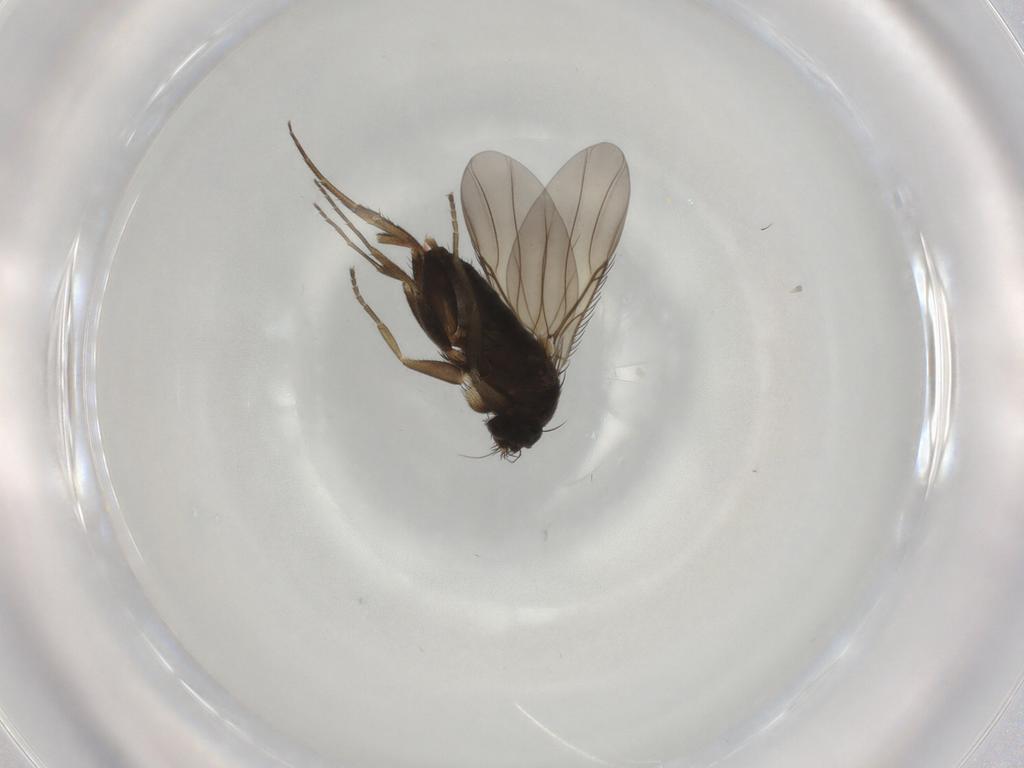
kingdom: Animalia
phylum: Arthropoda
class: Insecta
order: Diptera
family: Phoridae
